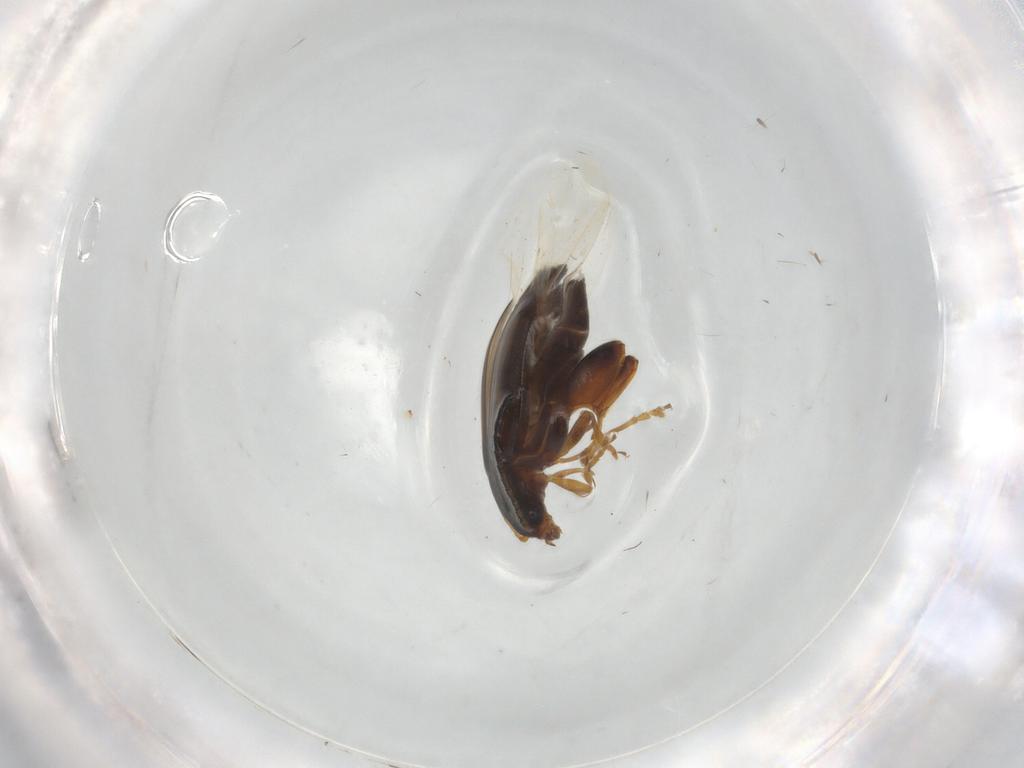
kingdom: Animalia
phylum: Arthropoda
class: Insecta
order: Coleoptera
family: Chrysomelidae
